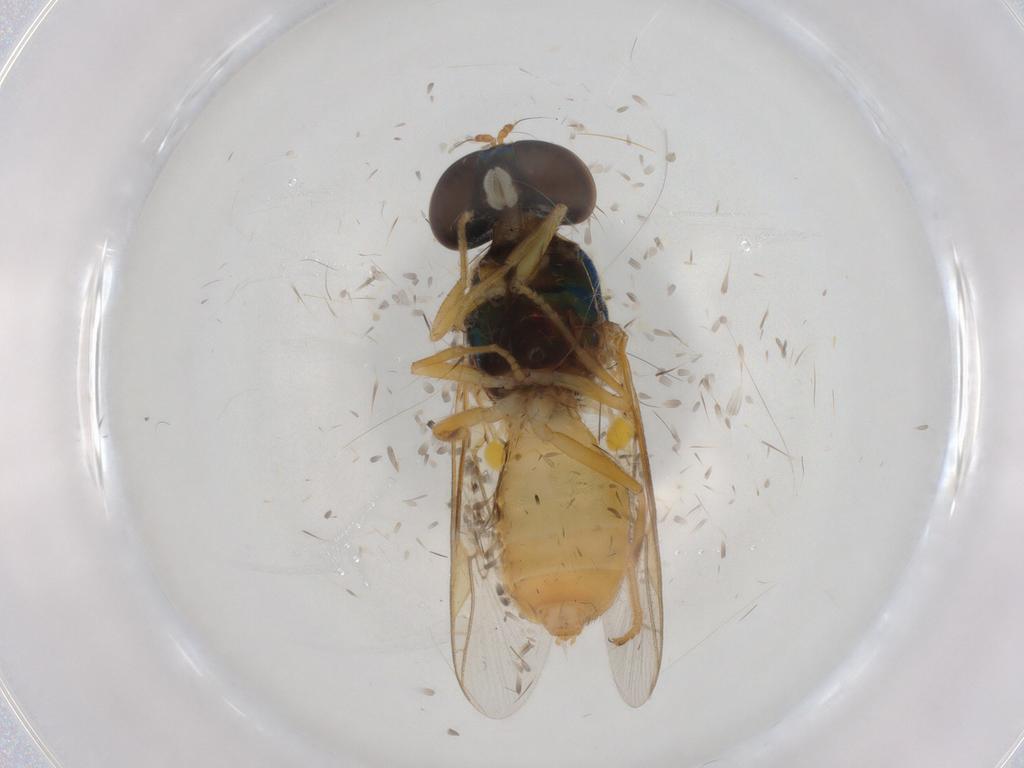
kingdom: Animalia
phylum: Arthropoda
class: Insecta
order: Diptera
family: Stratiomyidae
